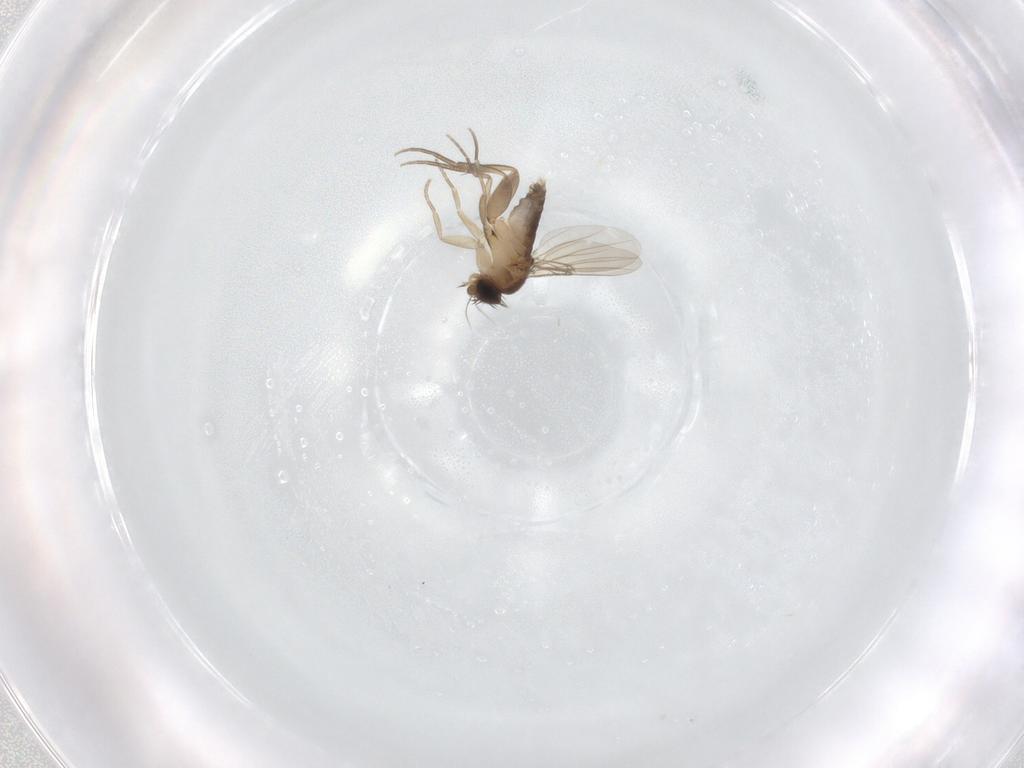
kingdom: Animalia
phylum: Arthropoda
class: Insecta
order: Diptera
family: Phoridae
